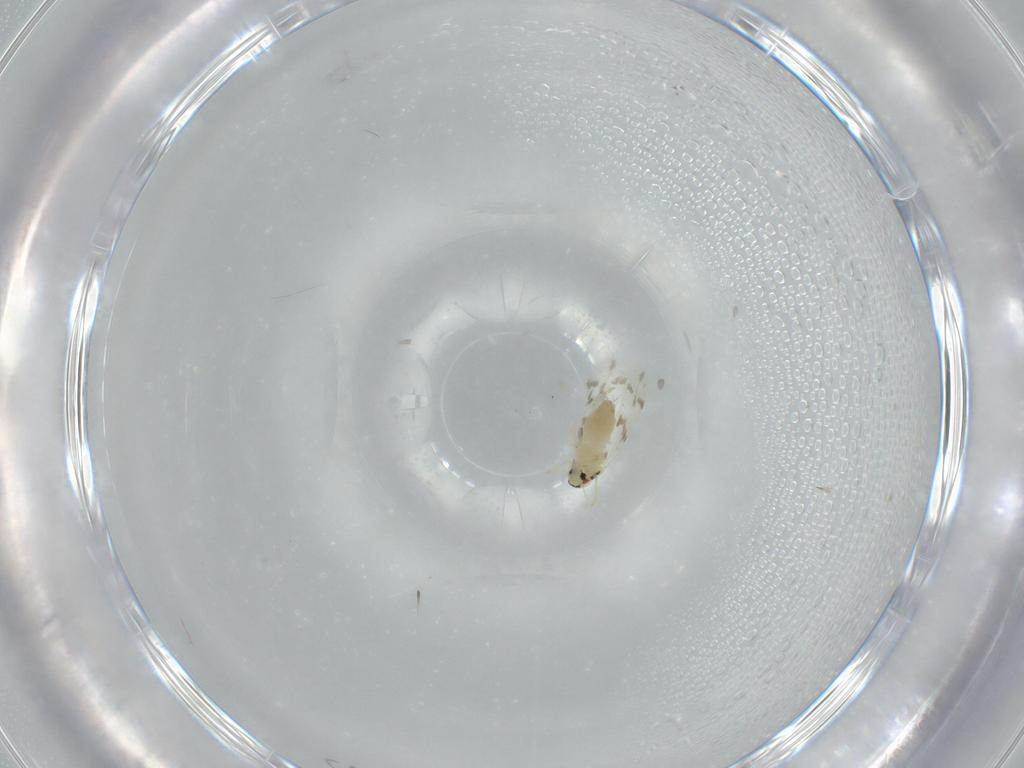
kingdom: Animalia
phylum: Arthropoda
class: Insecta
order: Hemiptera
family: Aleyrodidae
